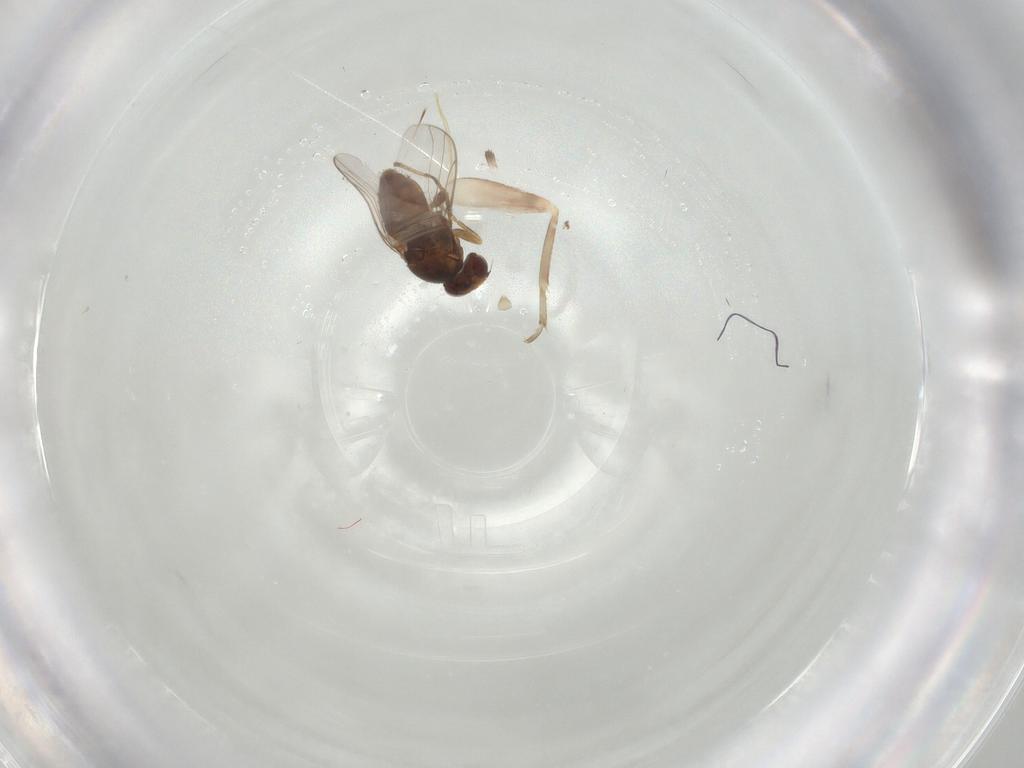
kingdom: Animalia
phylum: Arthropoda
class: Insecta
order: Diptera
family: Chloropidae
